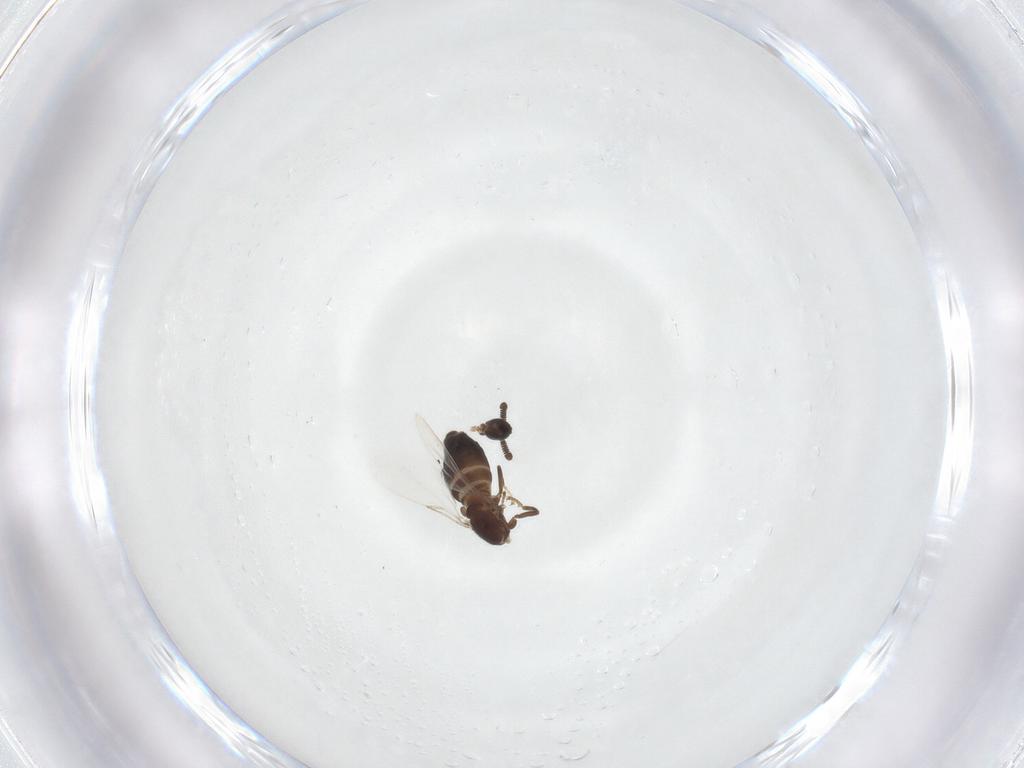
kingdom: Animalia
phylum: Arthropoda
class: Insecta
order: Diptera
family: Scatopsidae
